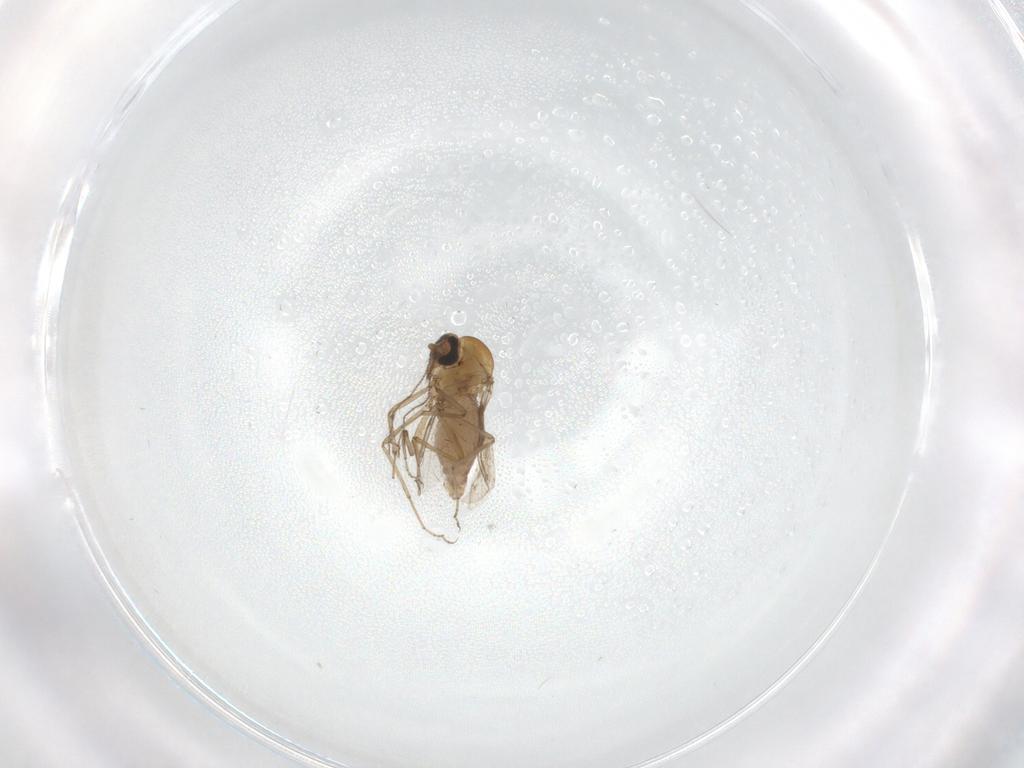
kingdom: Animalia
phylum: Arthropoda
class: Insecta
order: Diptera
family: Cecidomyiidae
